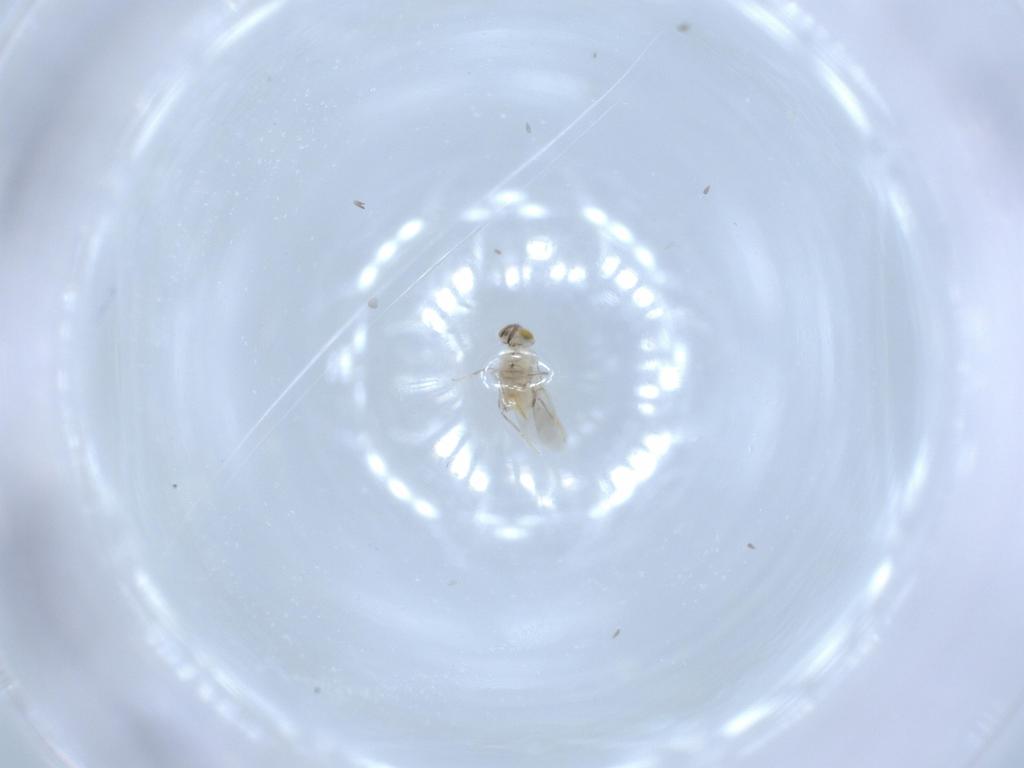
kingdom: Animalia
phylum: Arthropoda
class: Insecta
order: Hymenoptera
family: Aphelinidae
